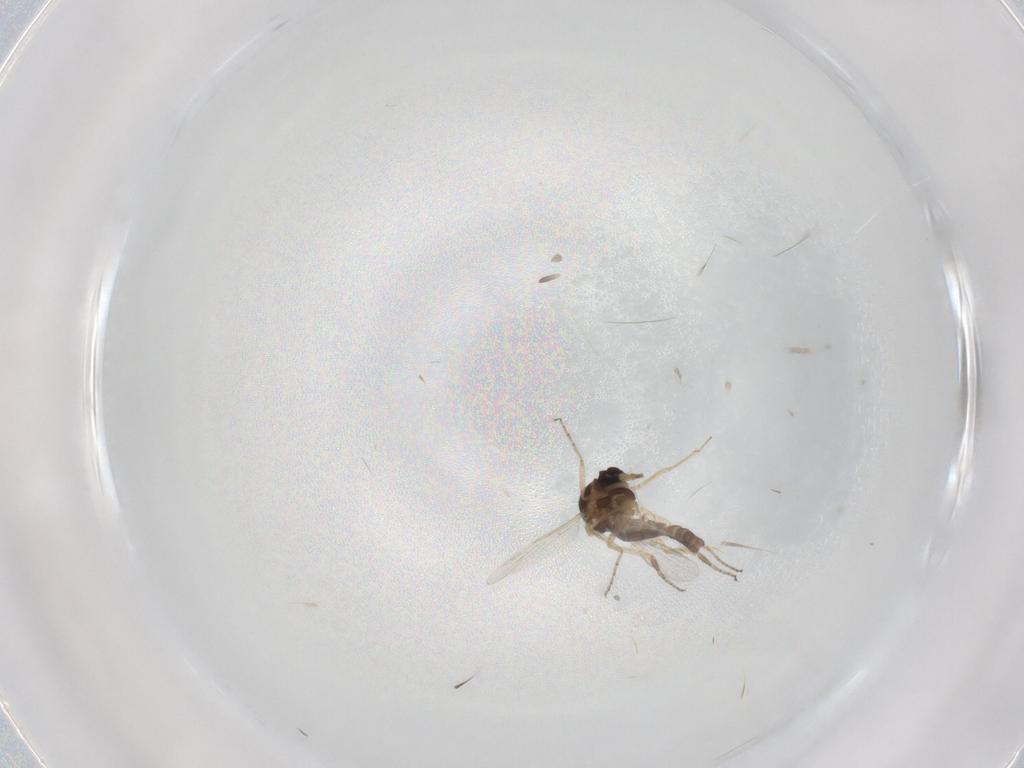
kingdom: Animalia
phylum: Arthropoda
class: Insecta
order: Diptera
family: Ceratopogonidae
